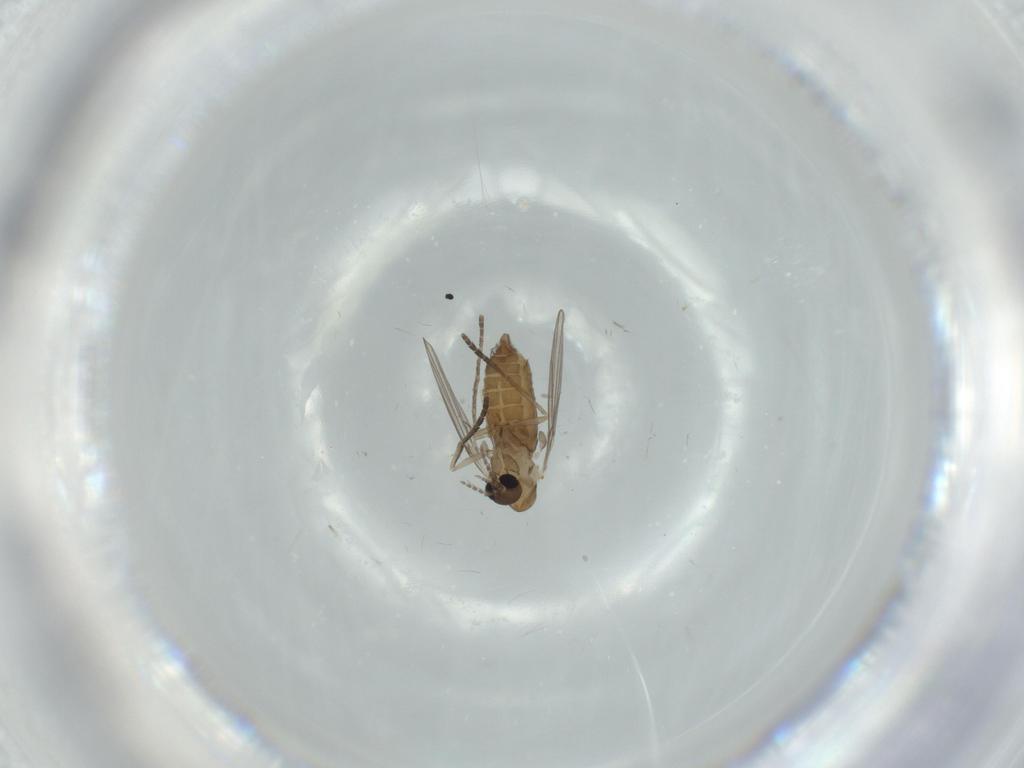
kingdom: Animalia
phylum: Arthropoda
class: Insecta
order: Diptera
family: Psychodidae
